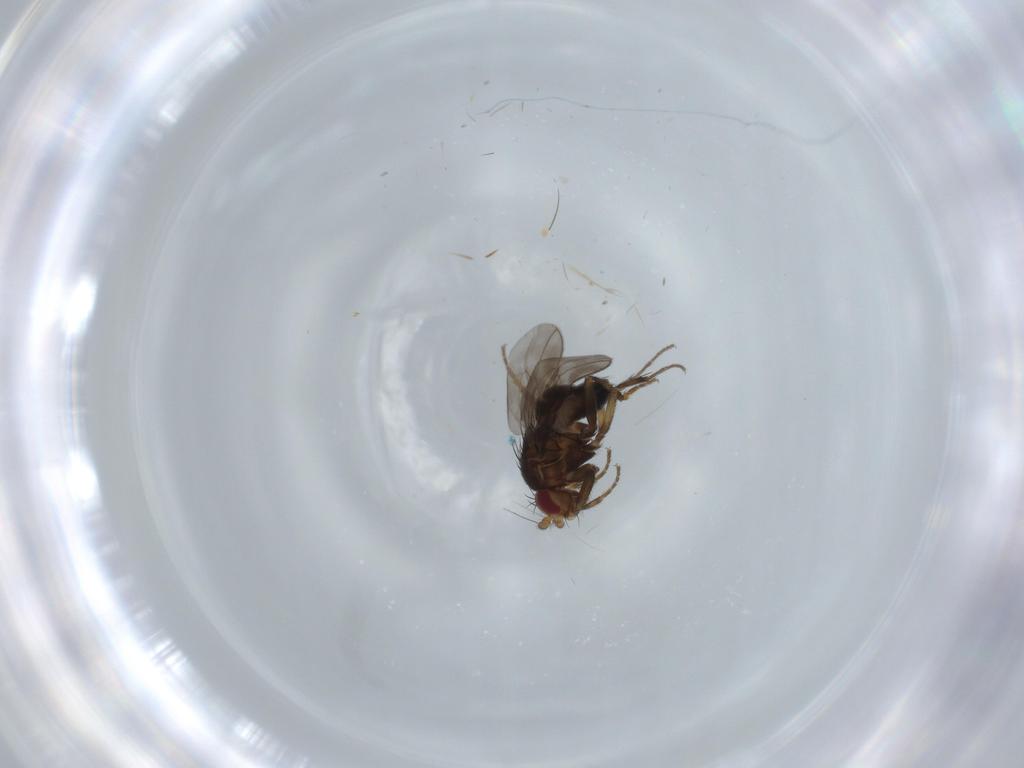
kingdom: Animalia
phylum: Arthropoda
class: Insecta
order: Diptera
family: Sphaeroceridae
